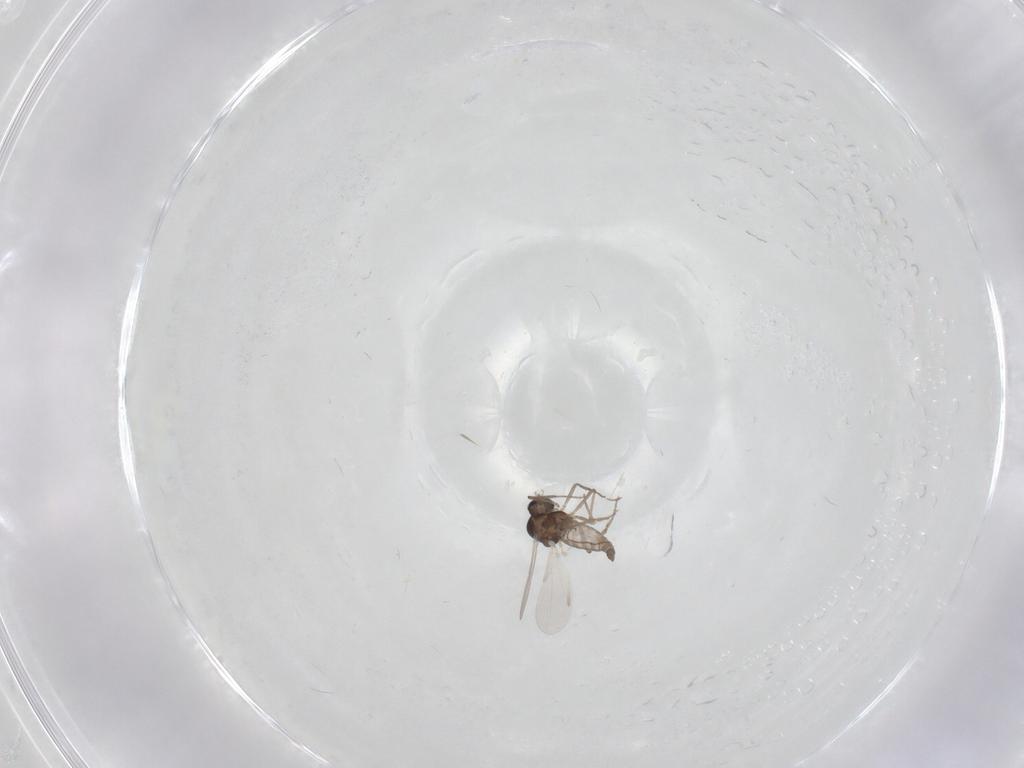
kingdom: Animalia
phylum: Arthropoda
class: Insecta
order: Diptera
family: Ceratopogonidae
